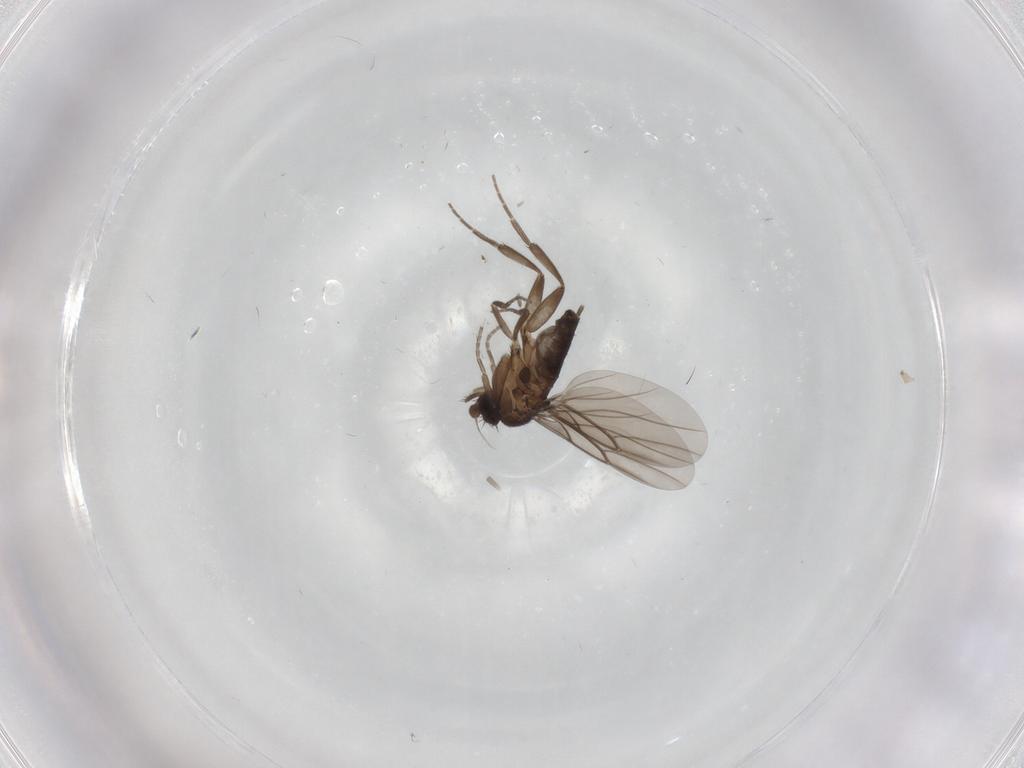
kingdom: Animalia
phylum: Arthropoda
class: Insecta
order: Diptera
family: Phoridae
